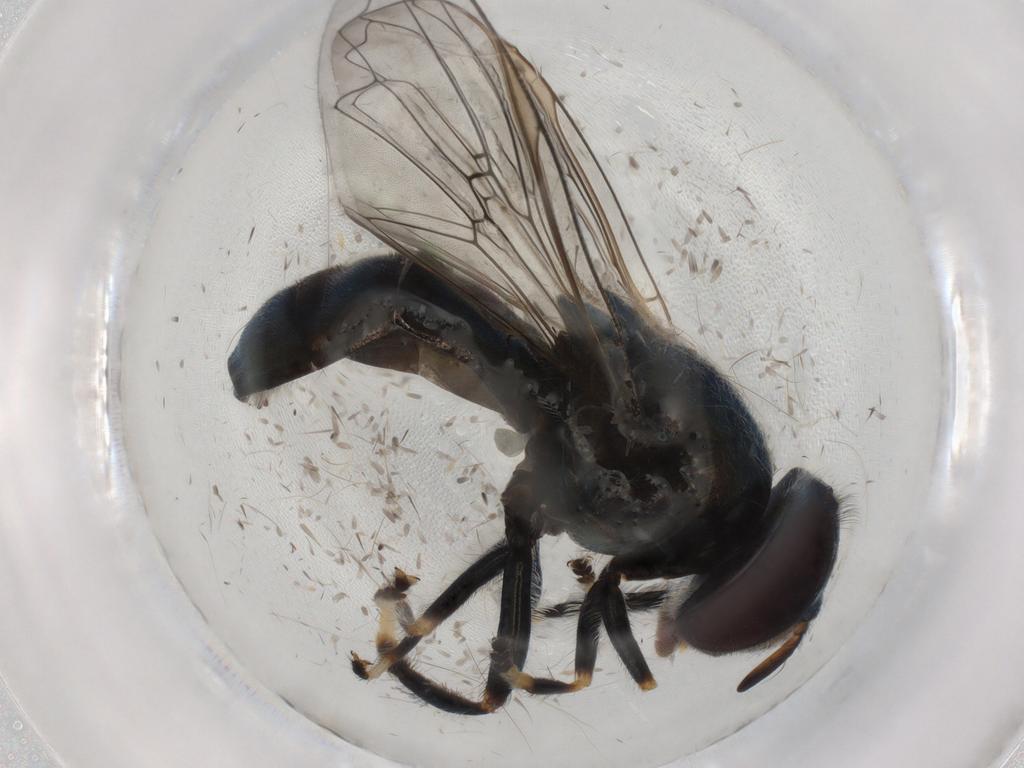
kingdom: Animalia
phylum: Arthropoda
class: Insecta
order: Diptera
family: Syrphidae
